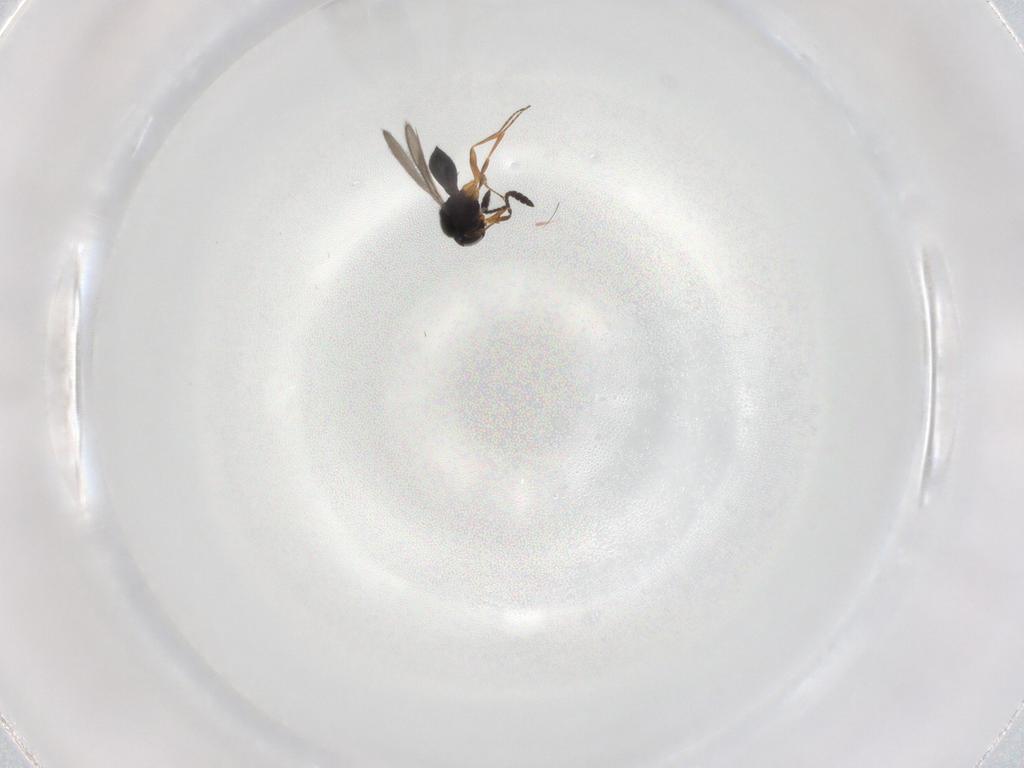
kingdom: Animalia
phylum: Arthropoda
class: Insecta
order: Hymenoptera
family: Scelionidae
